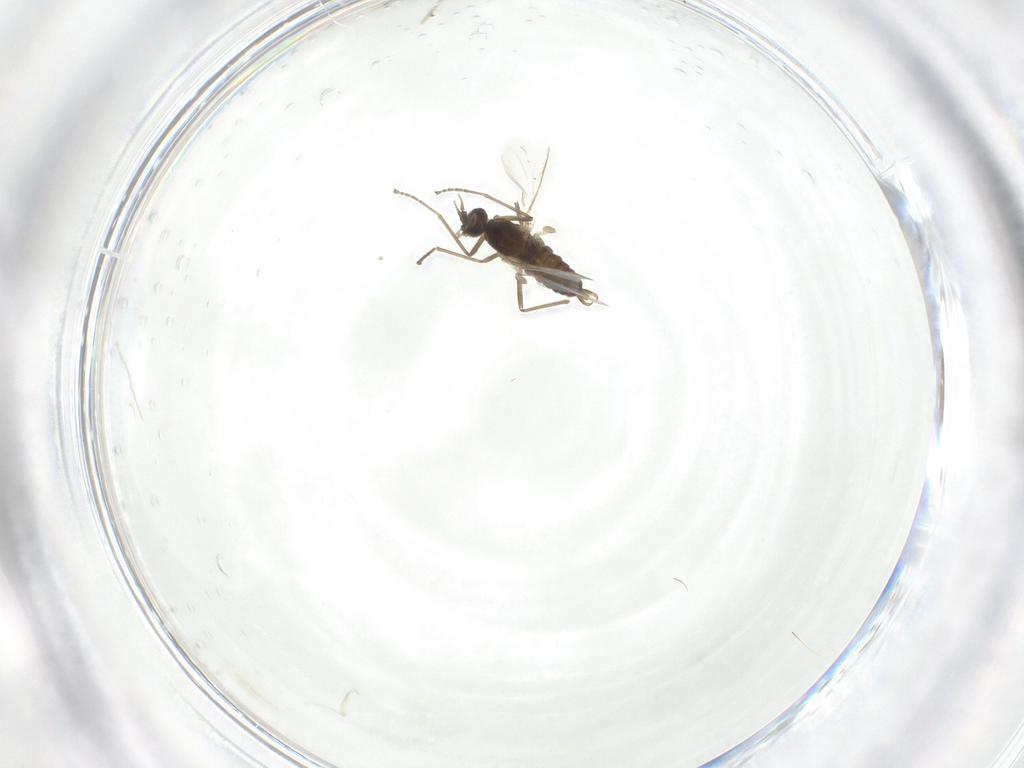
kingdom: Animalia
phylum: Arthropoda
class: Insecta
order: Diptera
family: Cecidomyiidae
